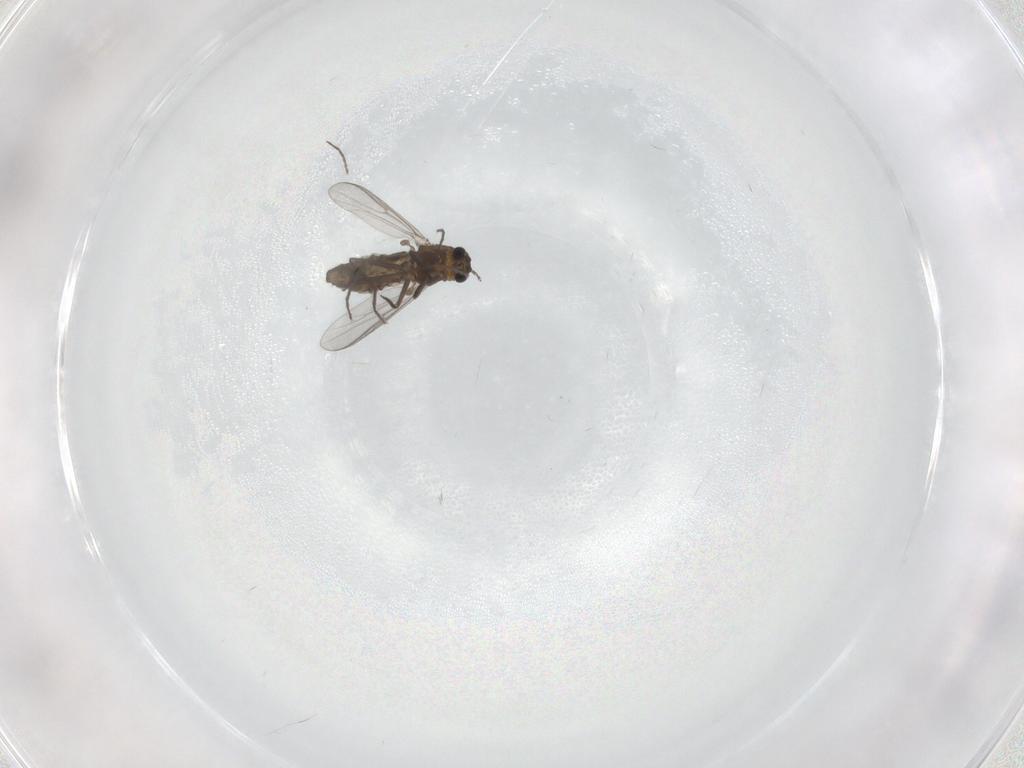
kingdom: Animalia
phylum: Arthropoda
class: Insecta
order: Diptera
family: Chironomidae
